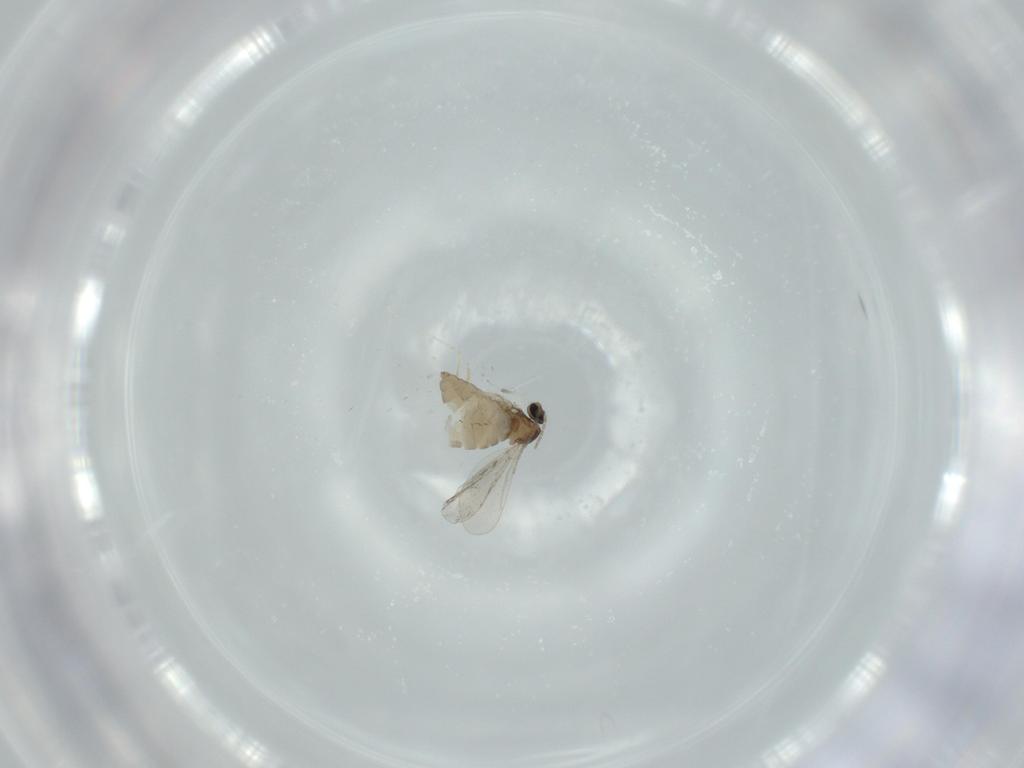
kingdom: Animalia
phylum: Arthropoda
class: Insecta
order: Diptera
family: Cecidomyiidae
